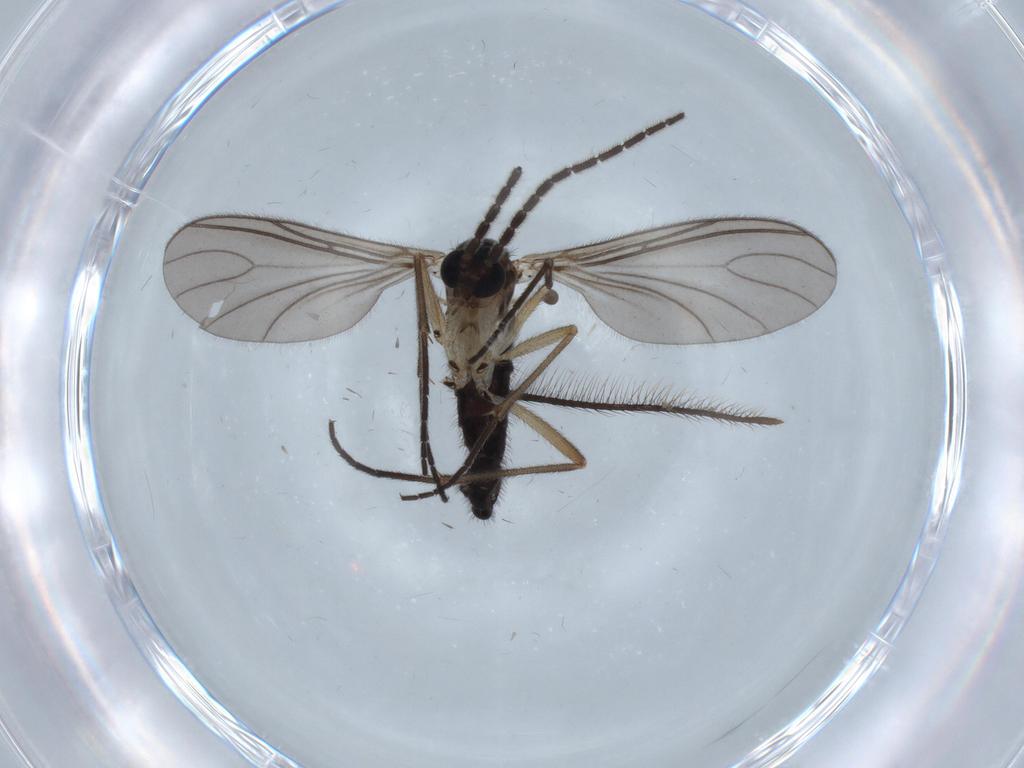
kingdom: Animalia
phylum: Arthropoda
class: Insecta
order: Diptera
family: Sciaridae
